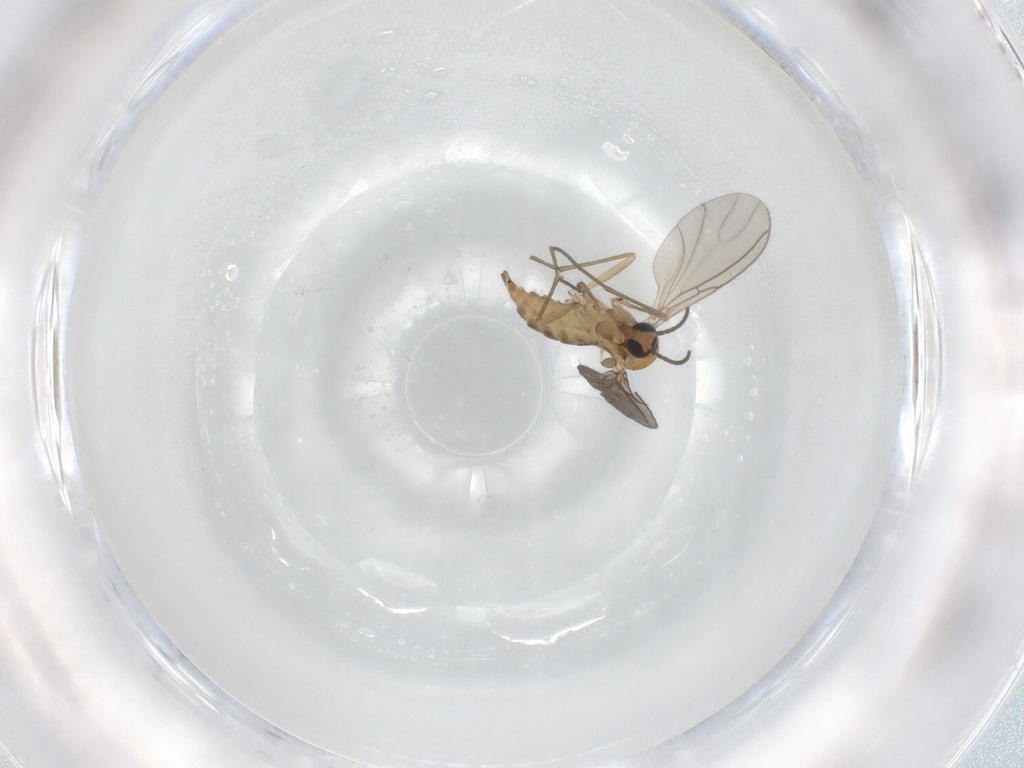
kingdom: Animalia
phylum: Arthropoda
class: Insecta
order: Diptera
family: Sciaridae
